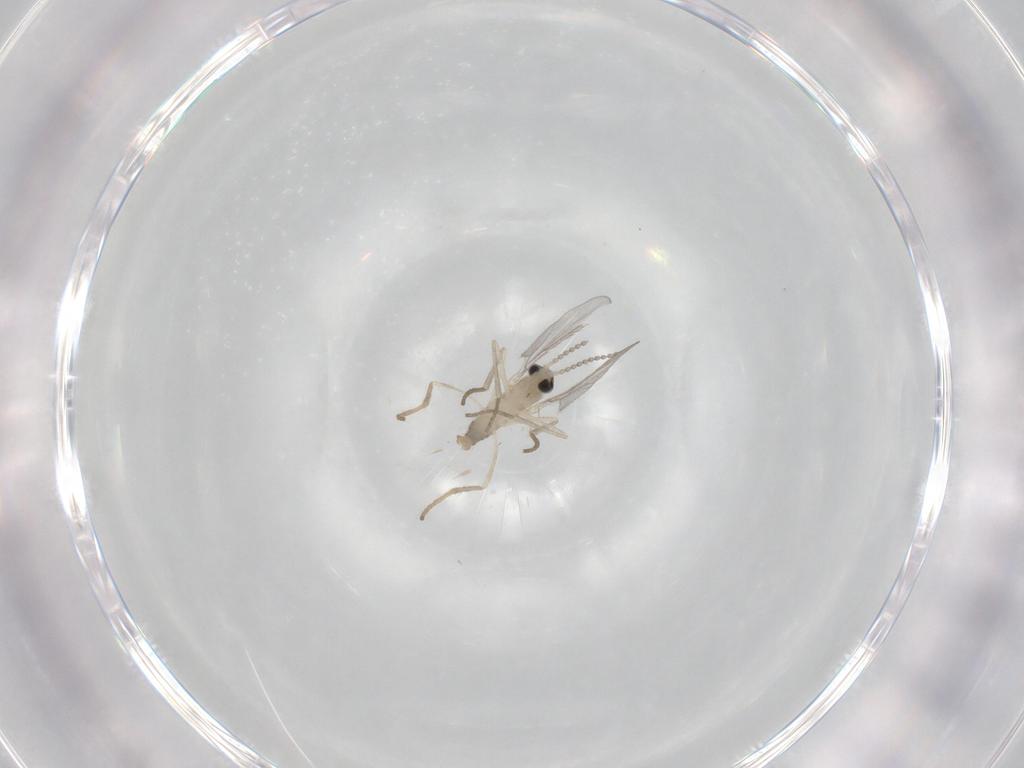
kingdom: Animalia
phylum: Arthropoda
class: Insecta
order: Diptera
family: Cecidomyiidae
